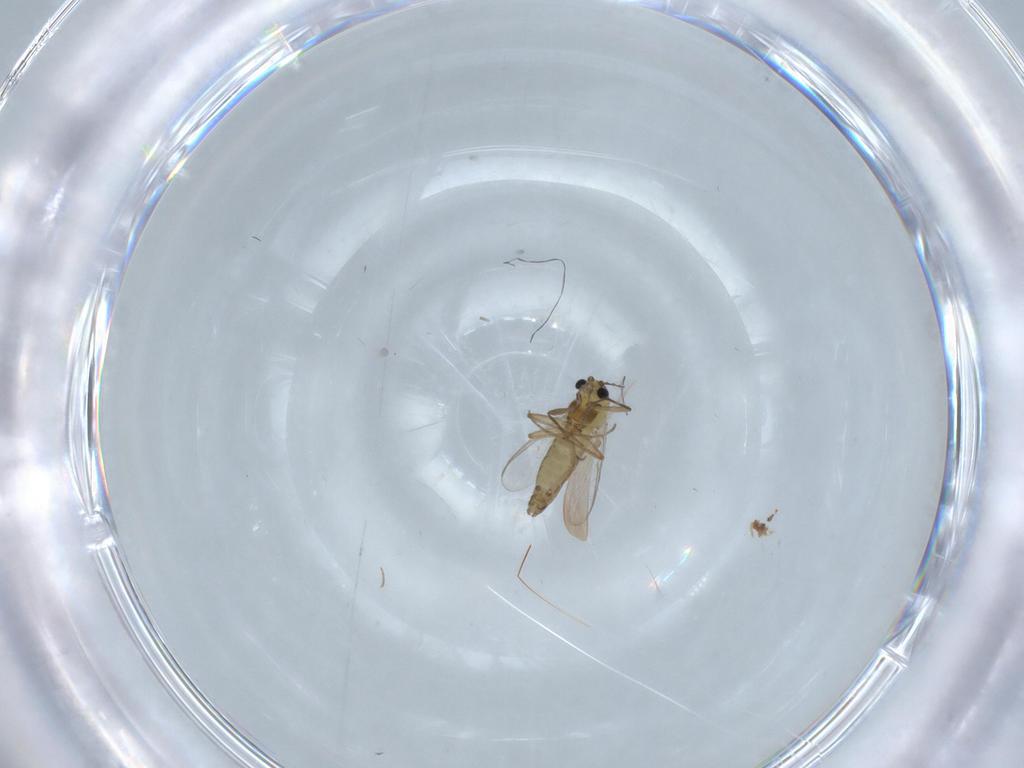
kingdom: Animalia
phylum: Arthropoda
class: Insecta
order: Diptera
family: Chironomidae
